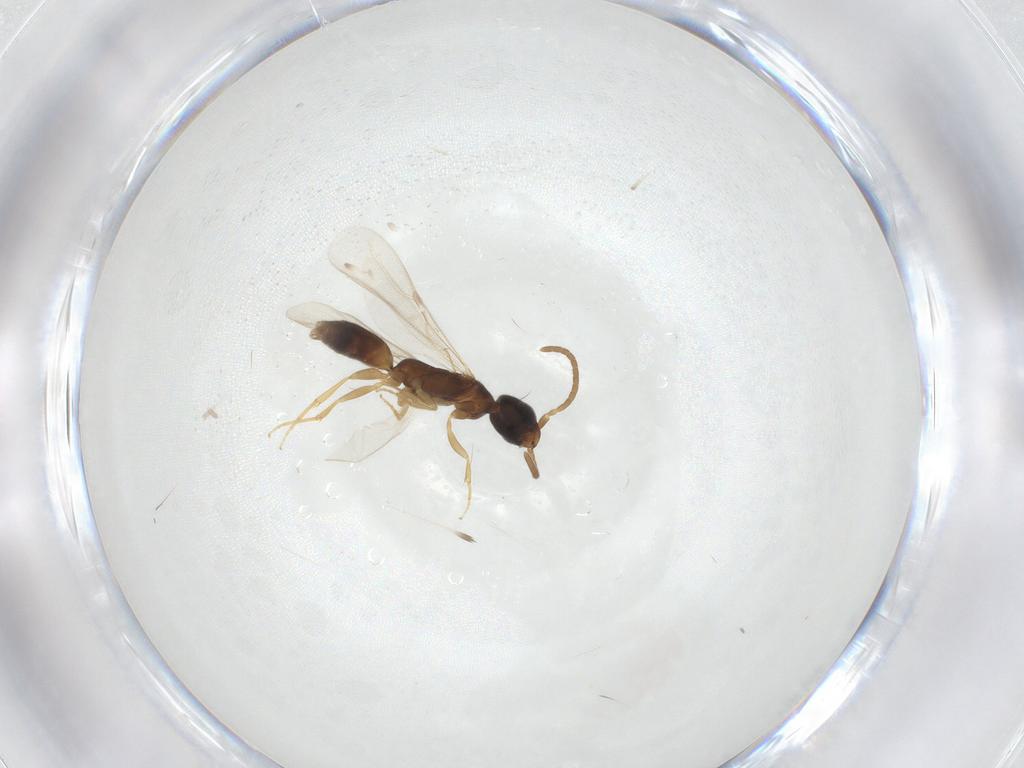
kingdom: Animalia
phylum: Arthropoda
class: Insecta
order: Hymenoptera
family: Bethylidae
